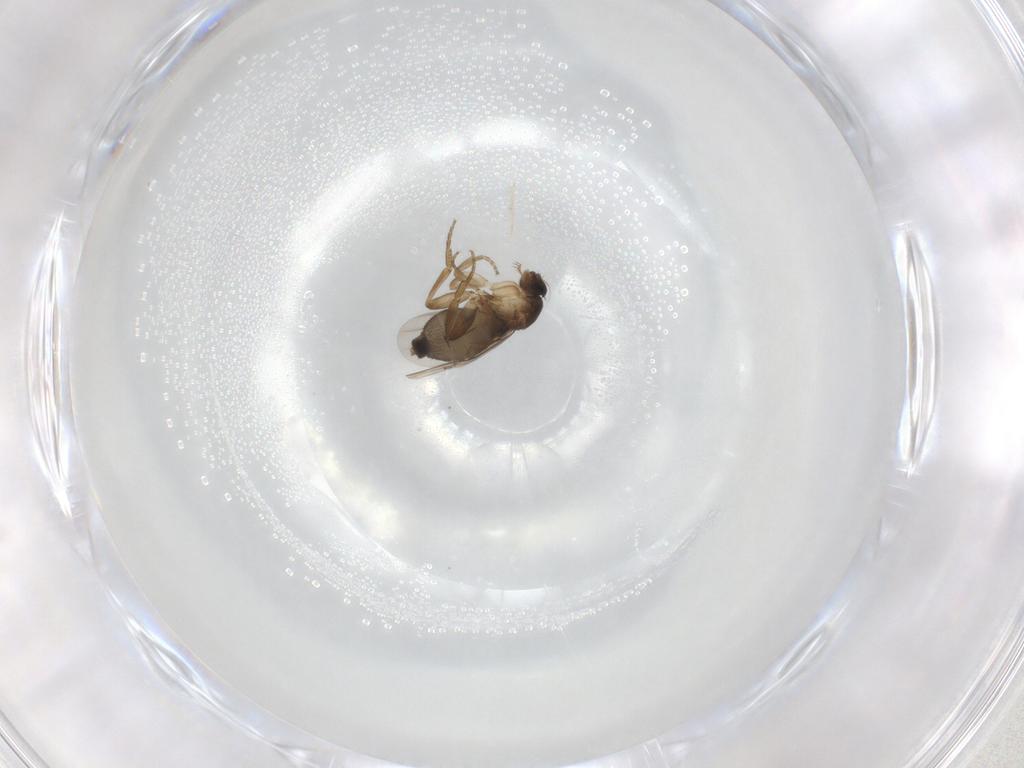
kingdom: Animalia
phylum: Arthropoda
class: Insecta
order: Diptera
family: Phoridae
